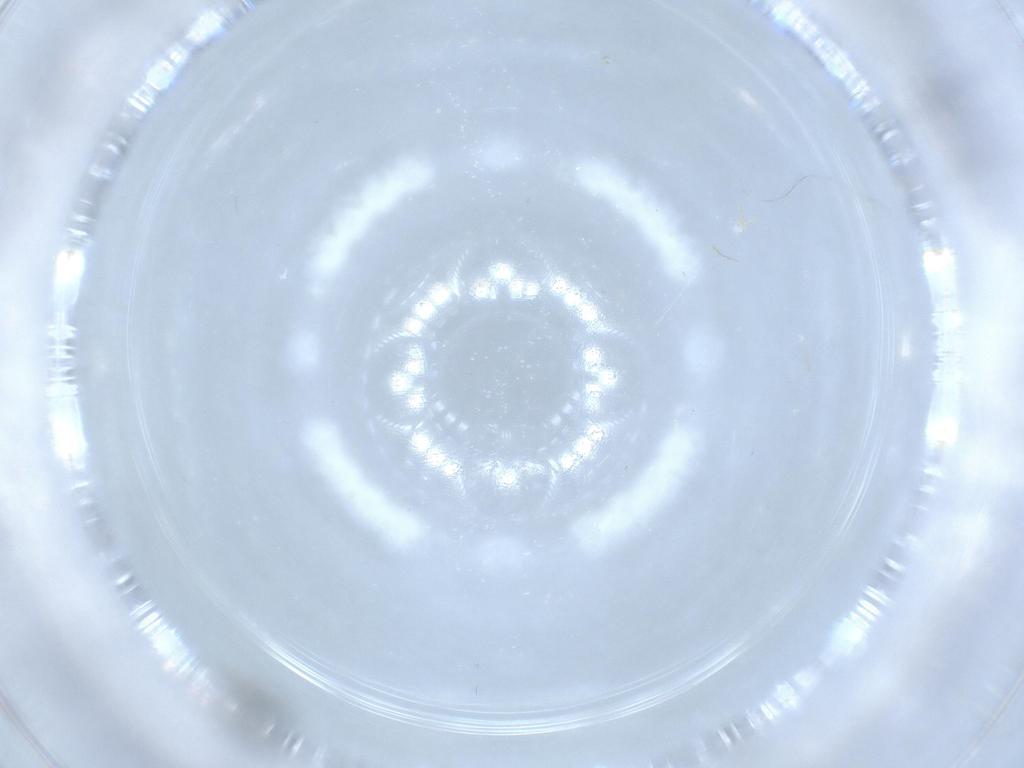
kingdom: Animalia
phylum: Arthropoda
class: Insecta
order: Diptera
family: Chironomidae
